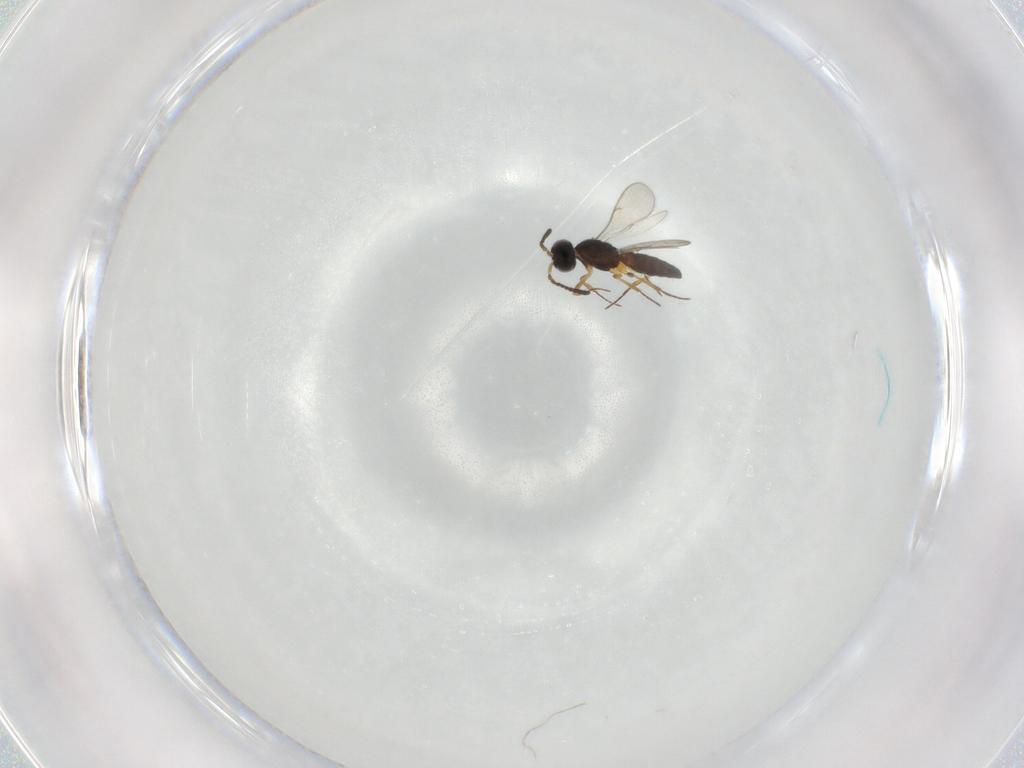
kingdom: Animalia
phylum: Arthropoda
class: Insecta
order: Hymenoptera
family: Scelionidae
